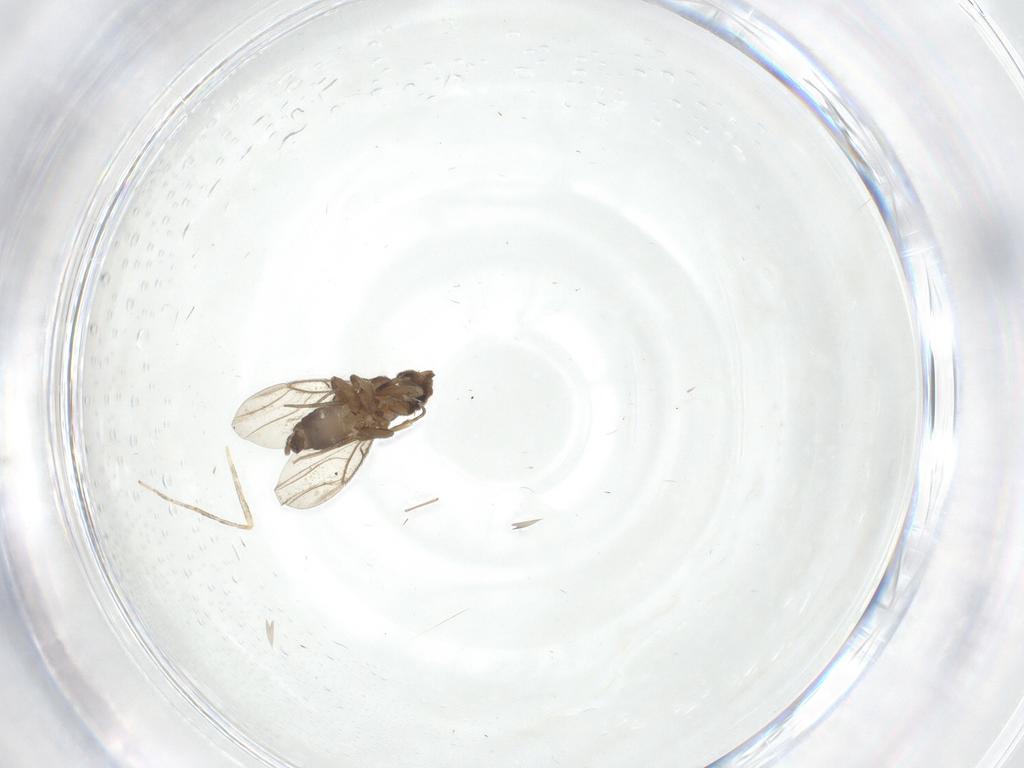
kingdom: Animalia
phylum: Arthropoda
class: Insecta
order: Diptera
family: Phoridae
